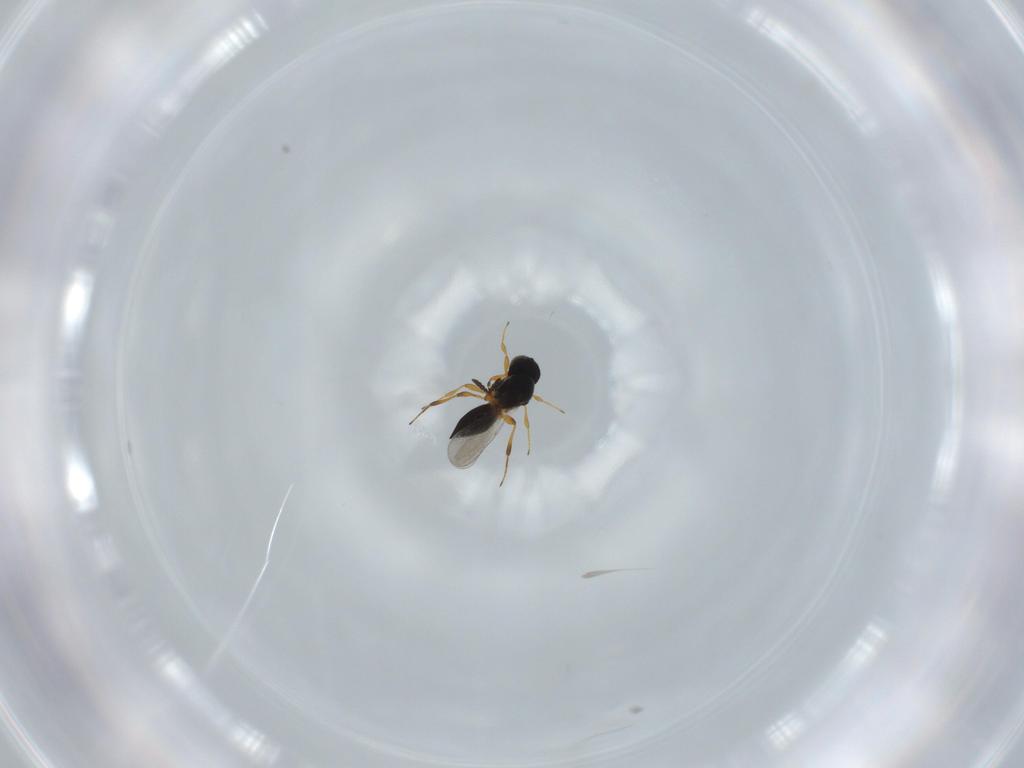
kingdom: Animalia
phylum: Arthropoda
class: Insecta
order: Hymenoptera
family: Platygastridae
